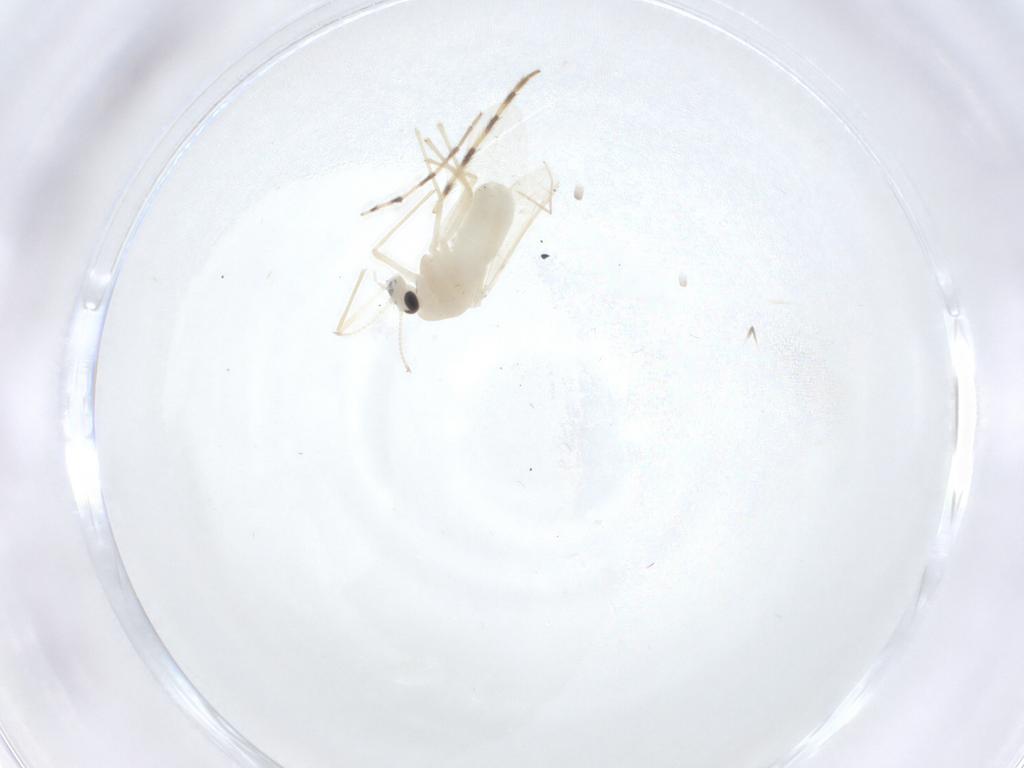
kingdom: Animalia
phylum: Arthropoda
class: Insecta
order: Diptera
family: Chironomidae
